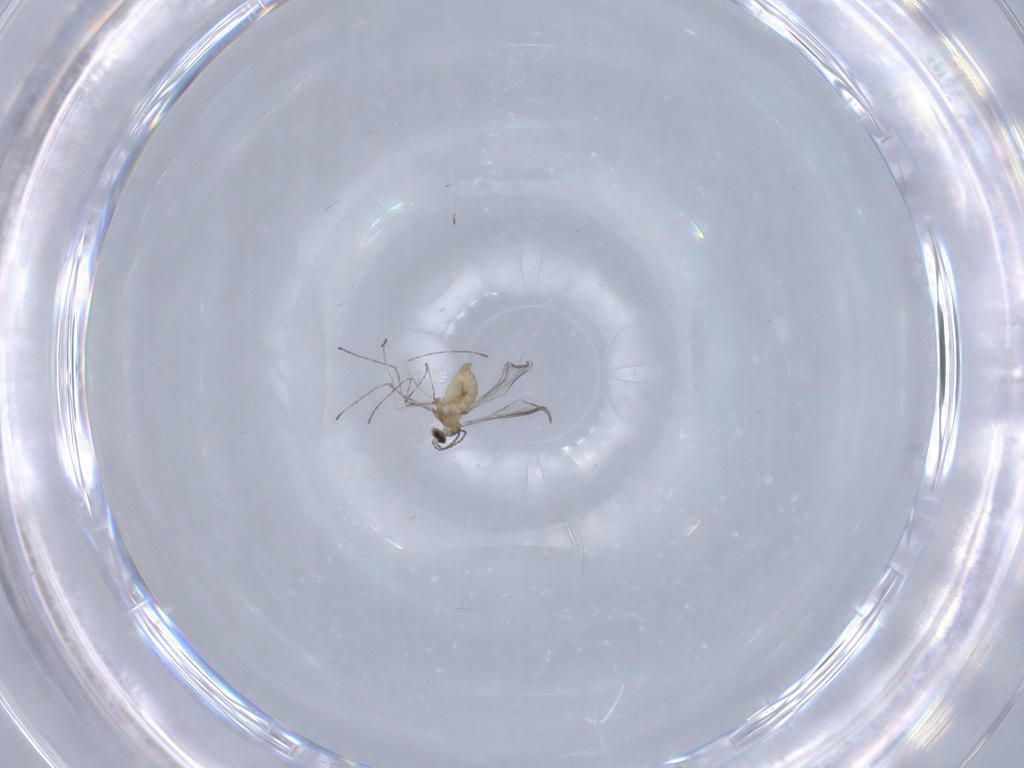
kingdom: Animalia
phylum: Arthropoda
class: Insecta
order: Diptera
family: Cecidomyiidae
